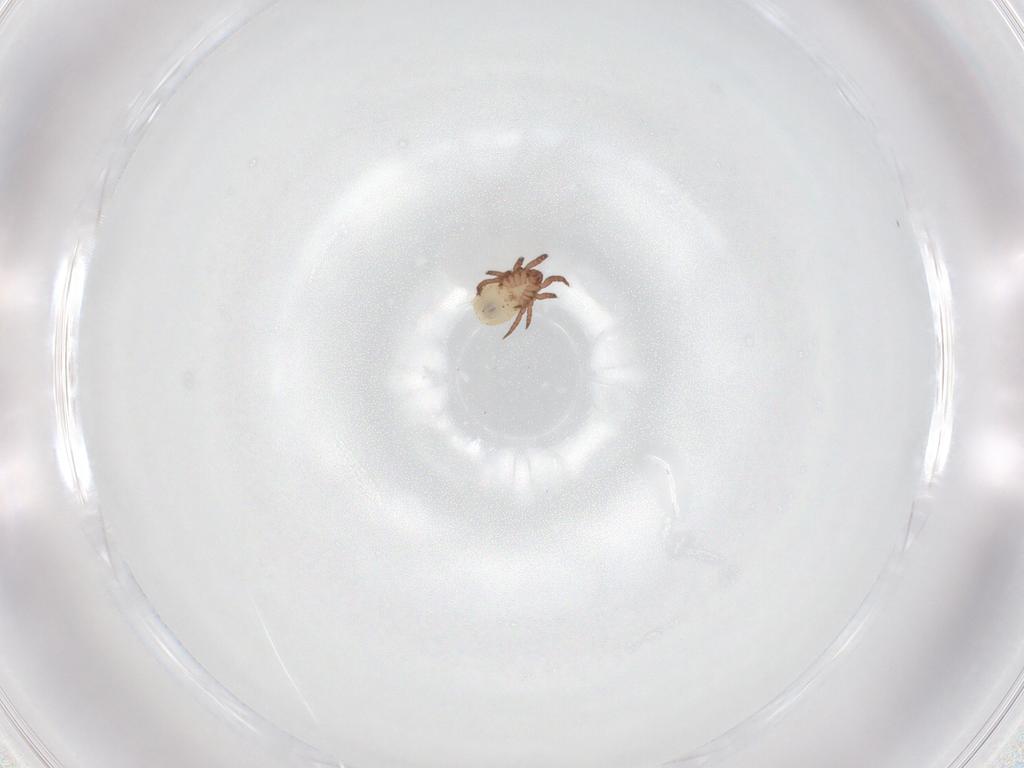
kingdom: Animalia
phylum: Arthropoda
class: Arachnida
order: Sarcoptiformes
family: Nothridae
